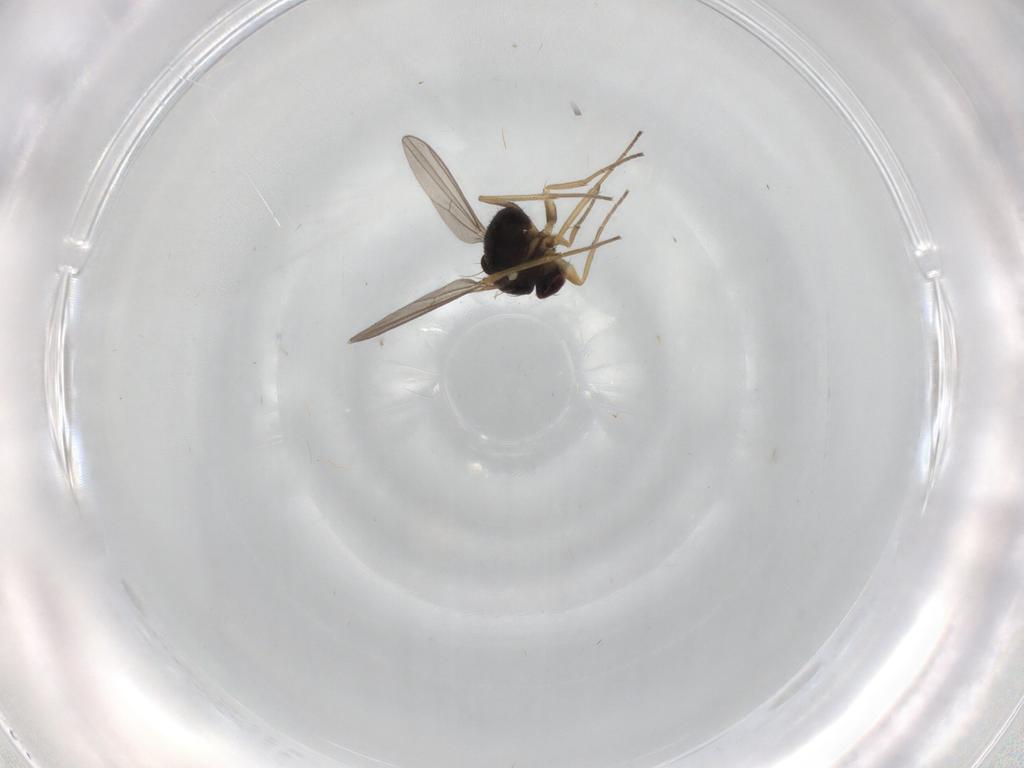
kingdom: Animalia
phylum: Arthropoda
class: Insecta
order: Diptera
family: Dolichopodidae
